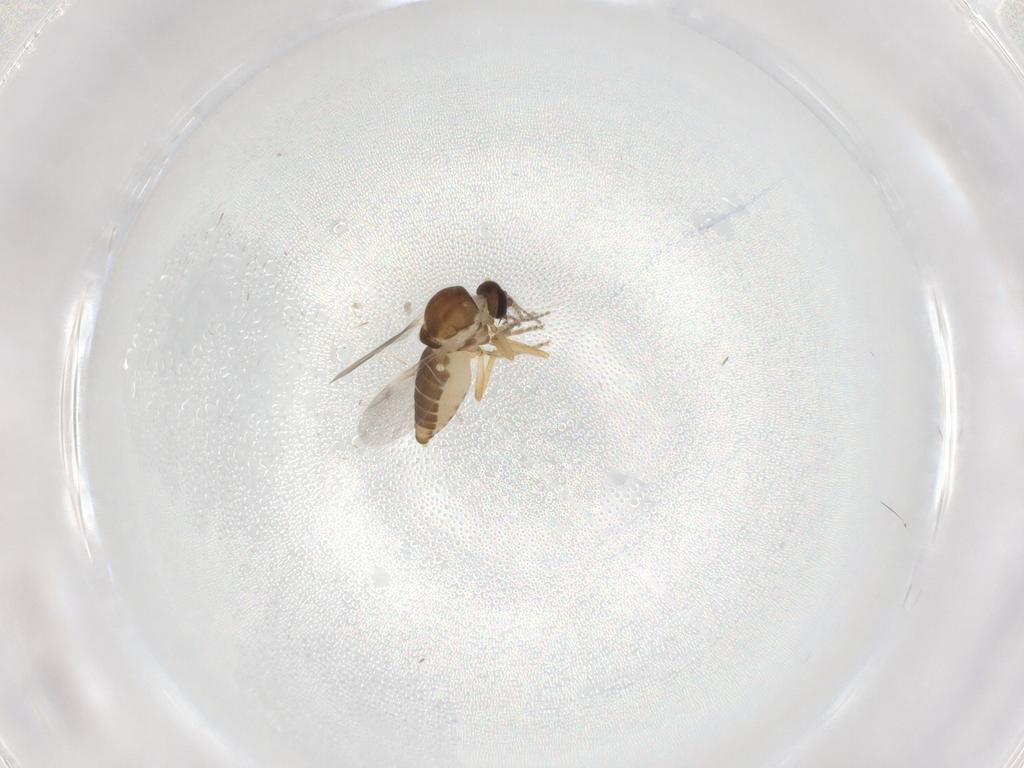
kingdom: Animalia
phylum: Arthropoda
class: Insecta
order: Diptera
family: Ceratopogonidae
